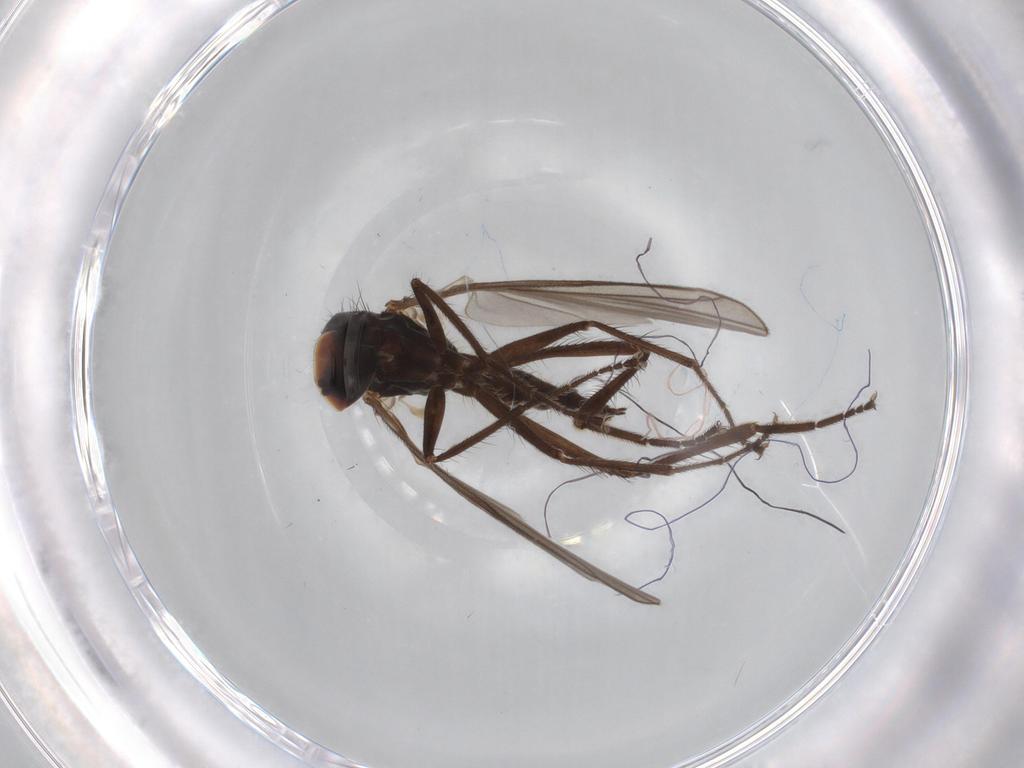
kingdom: Animalia
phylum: Arthropoda
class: Insecta
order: Diptera
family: Hybotidae
